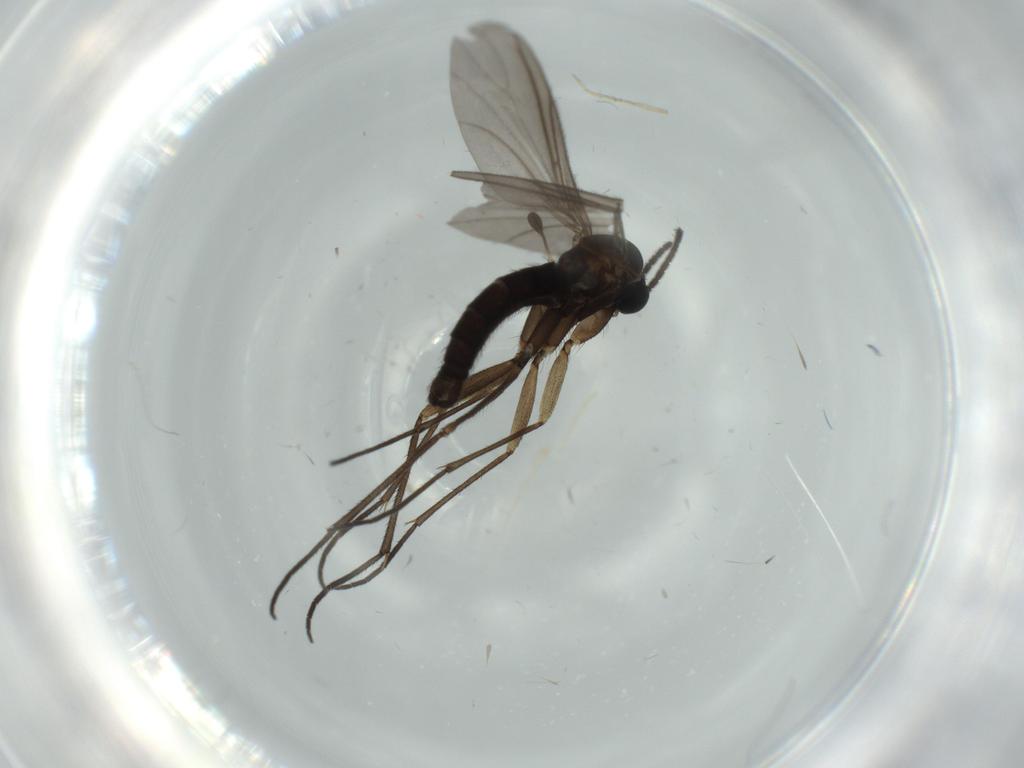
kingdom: Animalia
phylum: Arthropoda
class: Insecta
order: Diptera
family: Sciaridae
